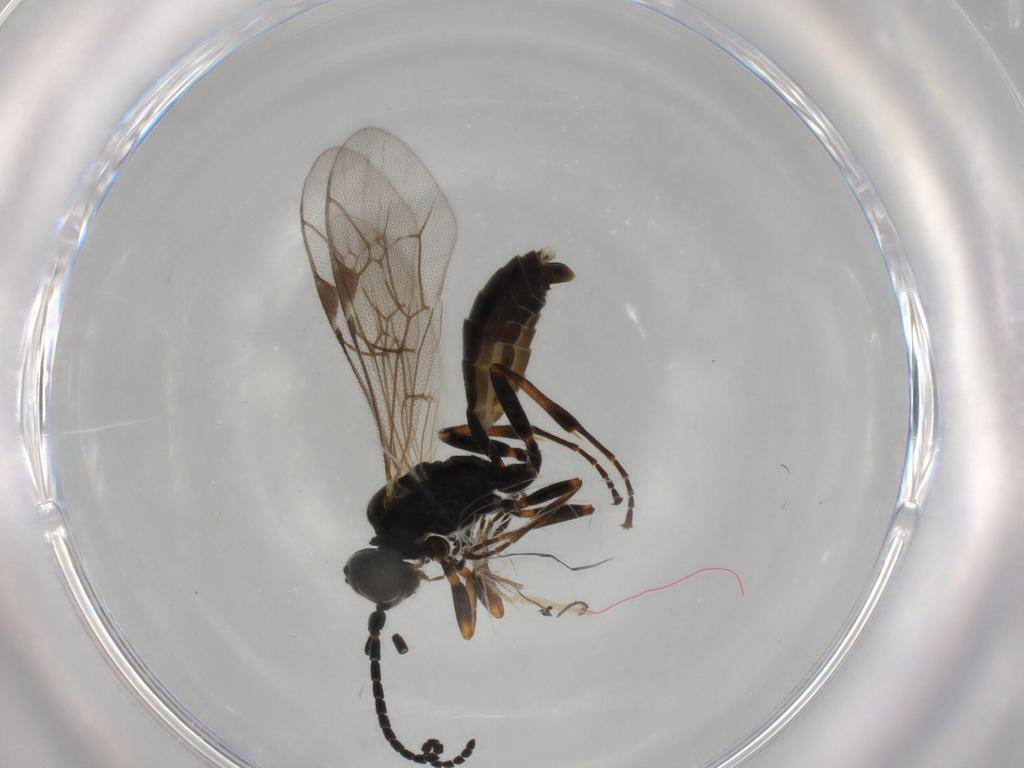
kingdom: Animalia
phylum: Arthropoda
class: Insecta
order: Hymenoptera
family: Ichneumonidae
